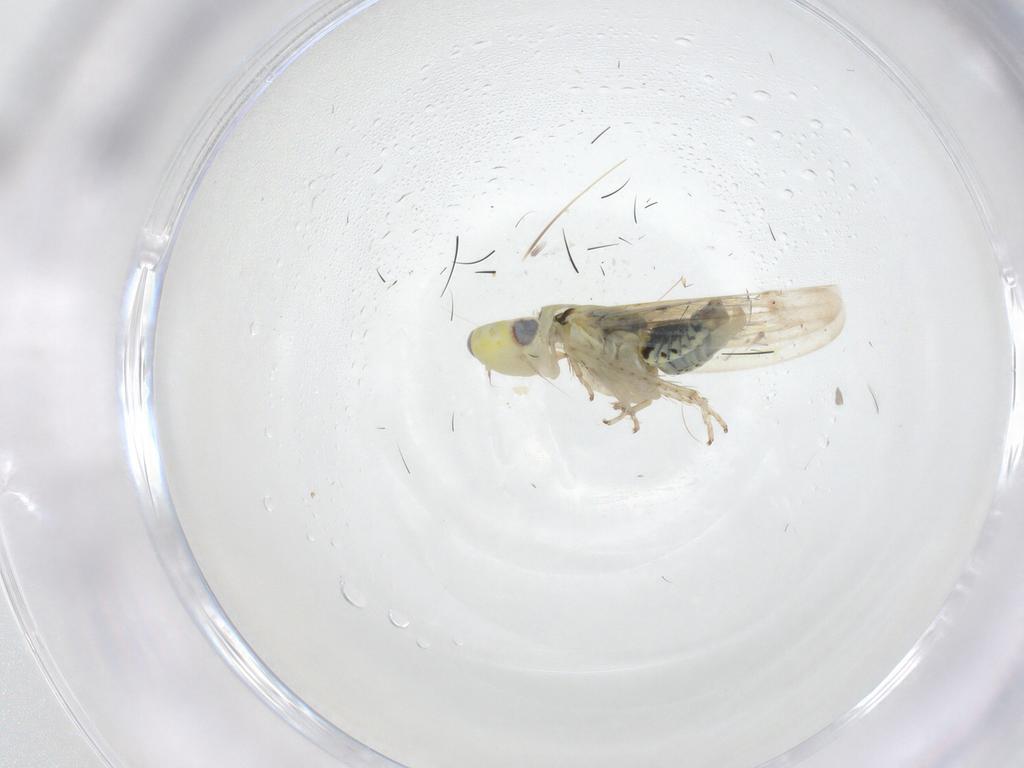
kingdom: Animalia
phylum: Arthropoda
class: Insecta
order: Hemiptera
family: Cicadellidae
